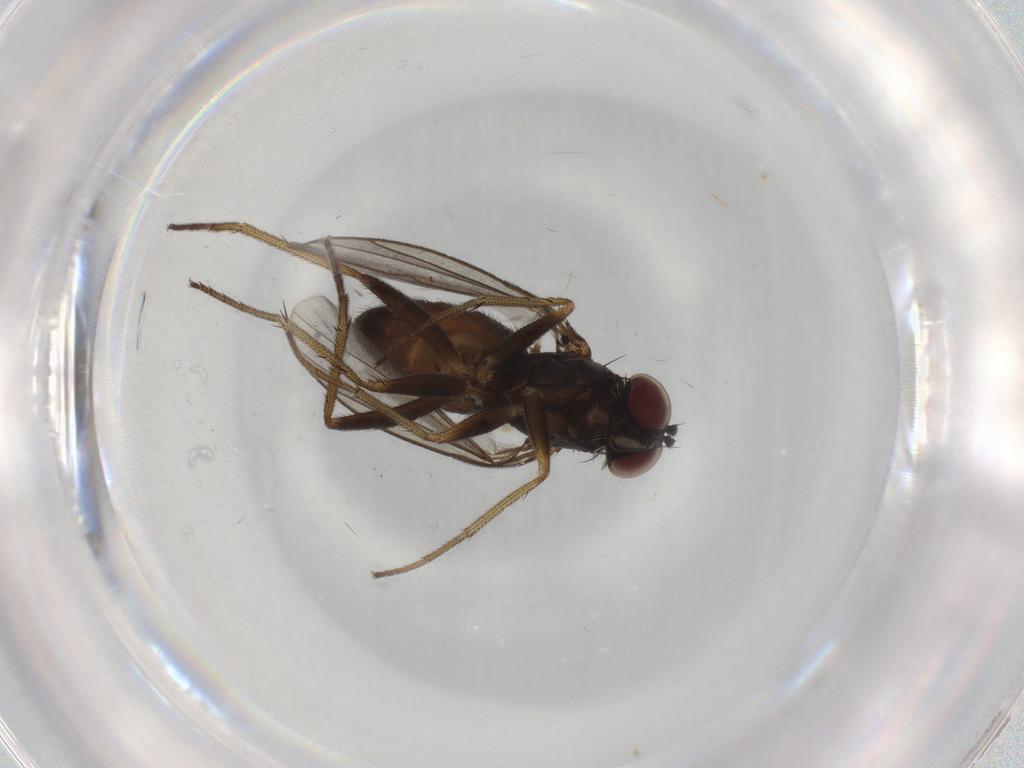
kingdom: Animalia
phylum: Arthropoda
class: Insecta
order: Diptera
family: Dolichopodidae
